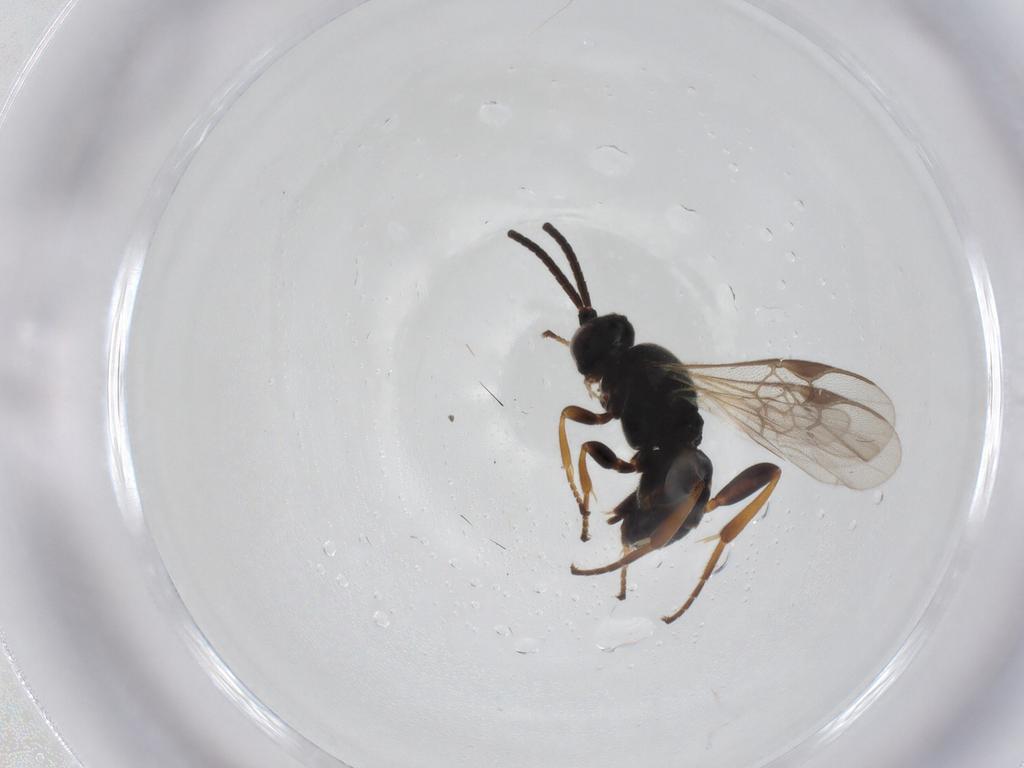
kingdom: Animalia
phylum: Arthropoda
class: Insecta
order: Hymenoptera
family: Braconidae
